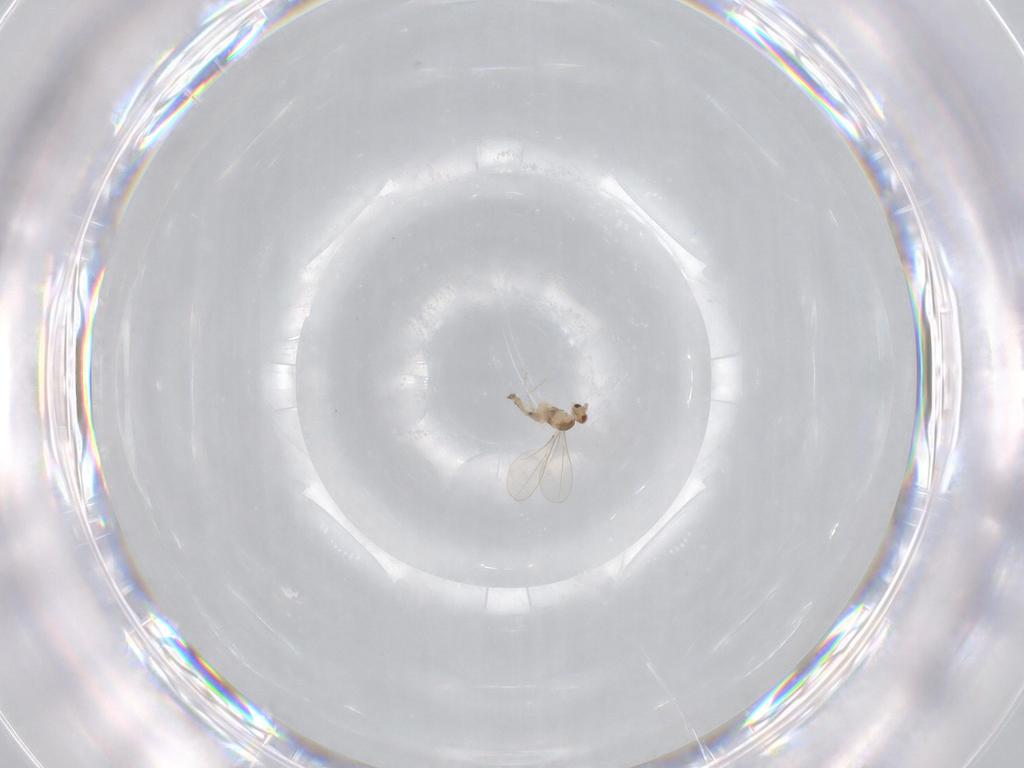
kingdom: Animalia
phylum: Arthropoda
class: Insecta
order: Diptera
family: Cecidomyiidae
